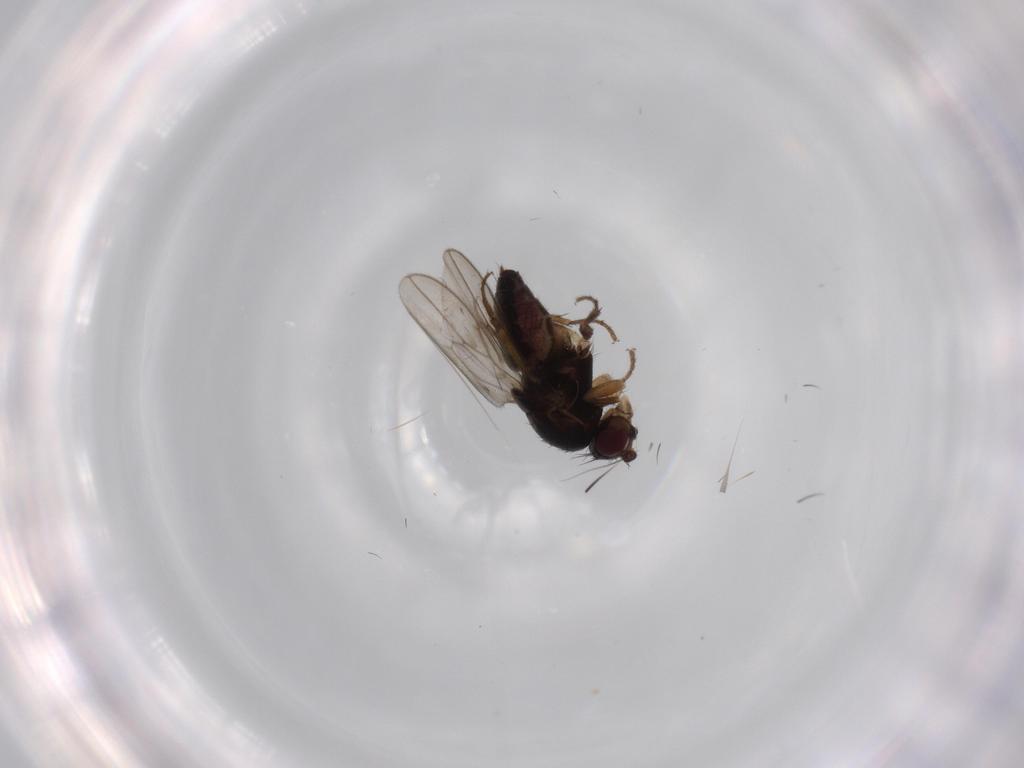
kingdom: Animalia
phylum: Arthropoda
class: Insecta
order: Diptera
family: Sphaeroceridae
